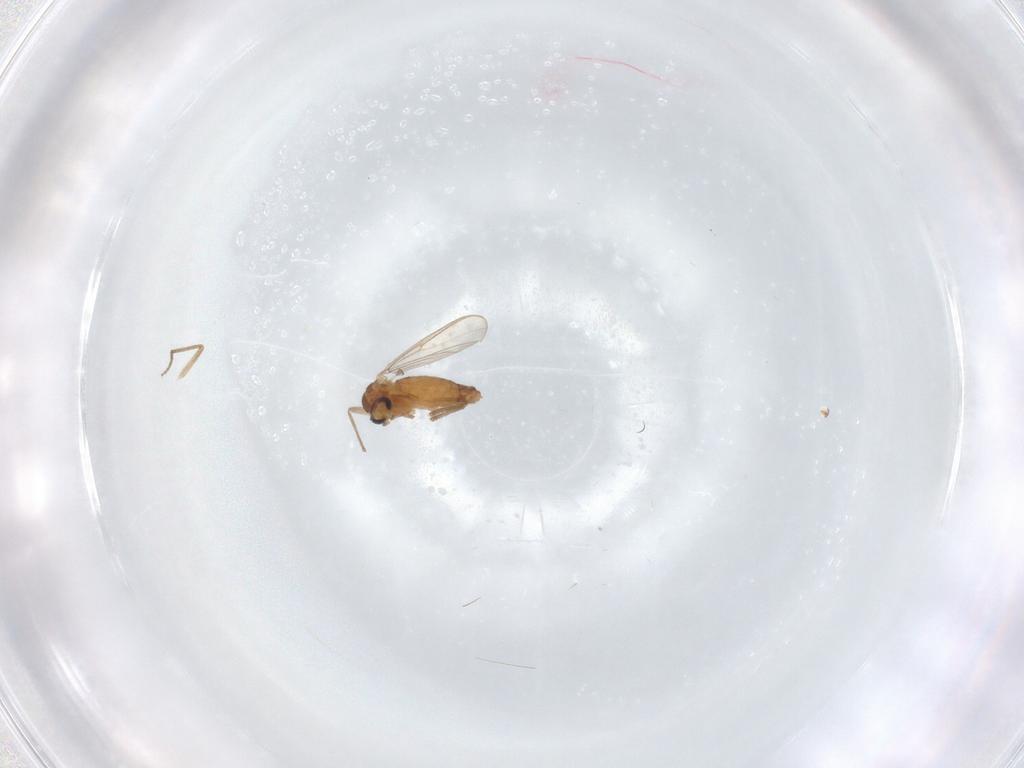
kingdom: Animalia
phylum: Arthropoda
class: Insecta
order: Diptera
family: Chironomidae
